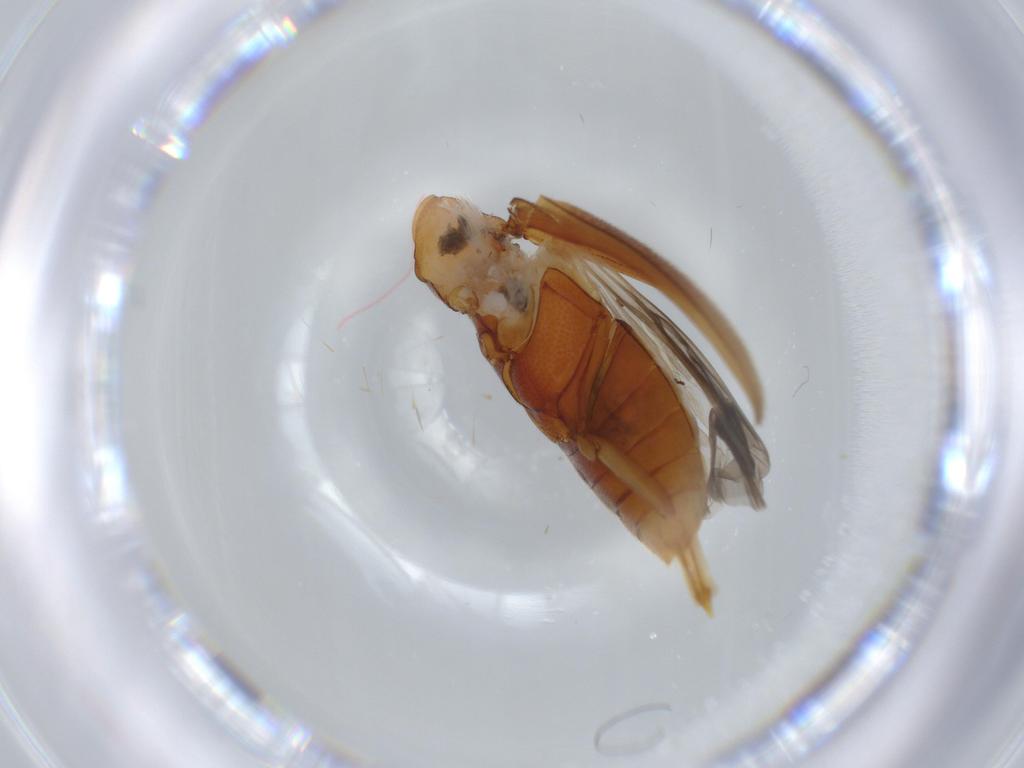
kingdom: Animalia
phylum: Arthropoda
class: Insecta
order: Coleoptera
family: Ptilodactylidae
